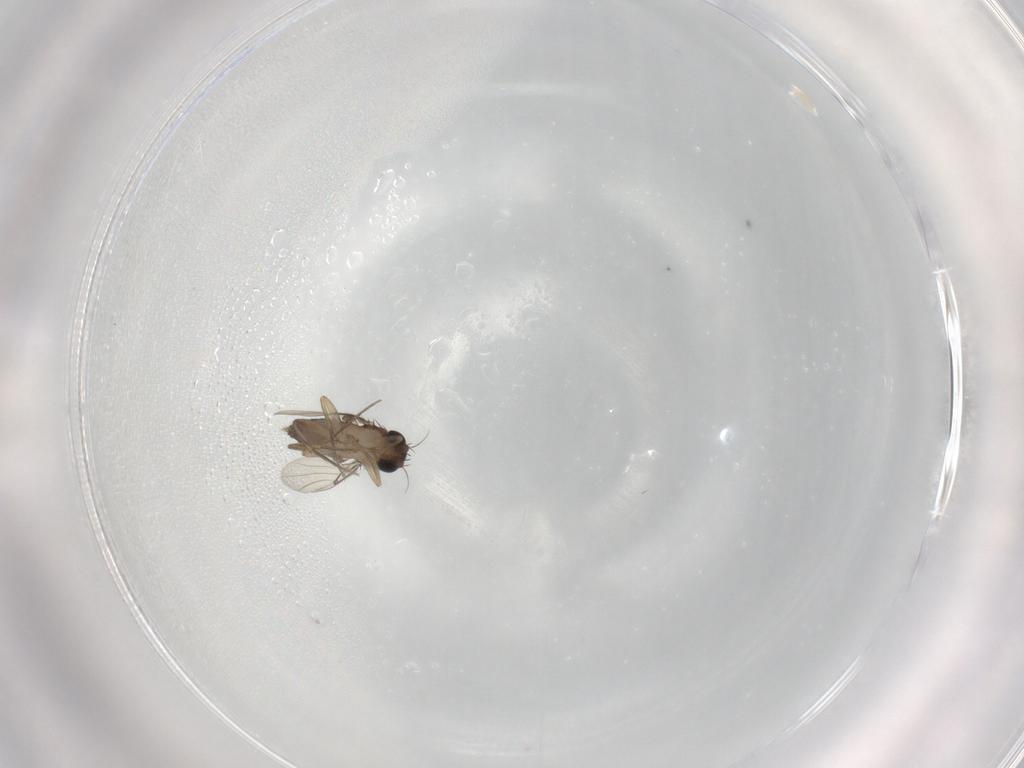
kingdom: Animalia
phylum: Arthropoda
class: Insecta
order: Diptera
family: Phoridae
